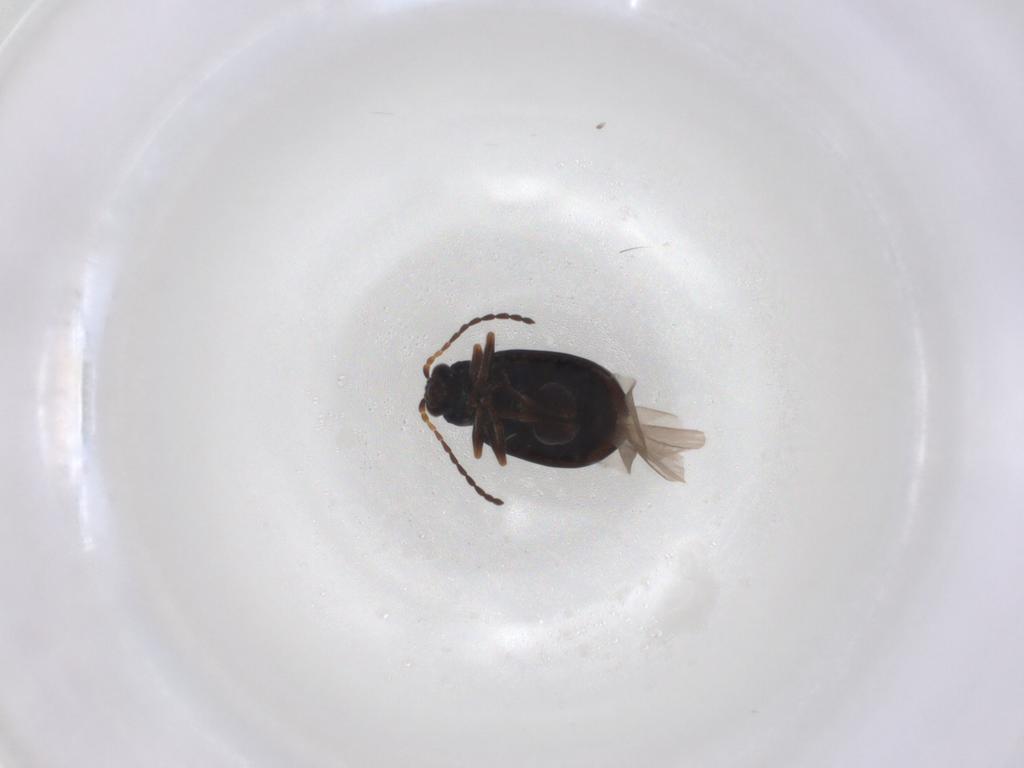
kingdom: Animalia
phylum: Arthropoda
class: Insecta
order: Coleoptera
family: Chrysomelidae
